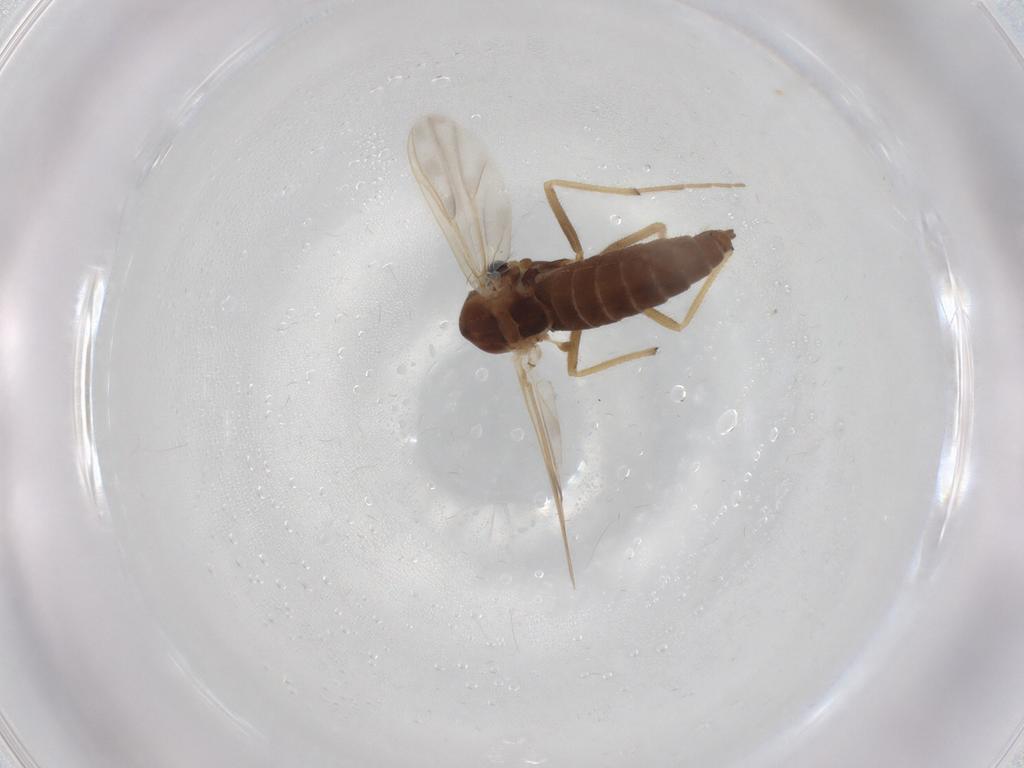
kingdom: Animalia
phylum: Arthropoda
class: Insecta
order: Diptera
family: Chironomidae
